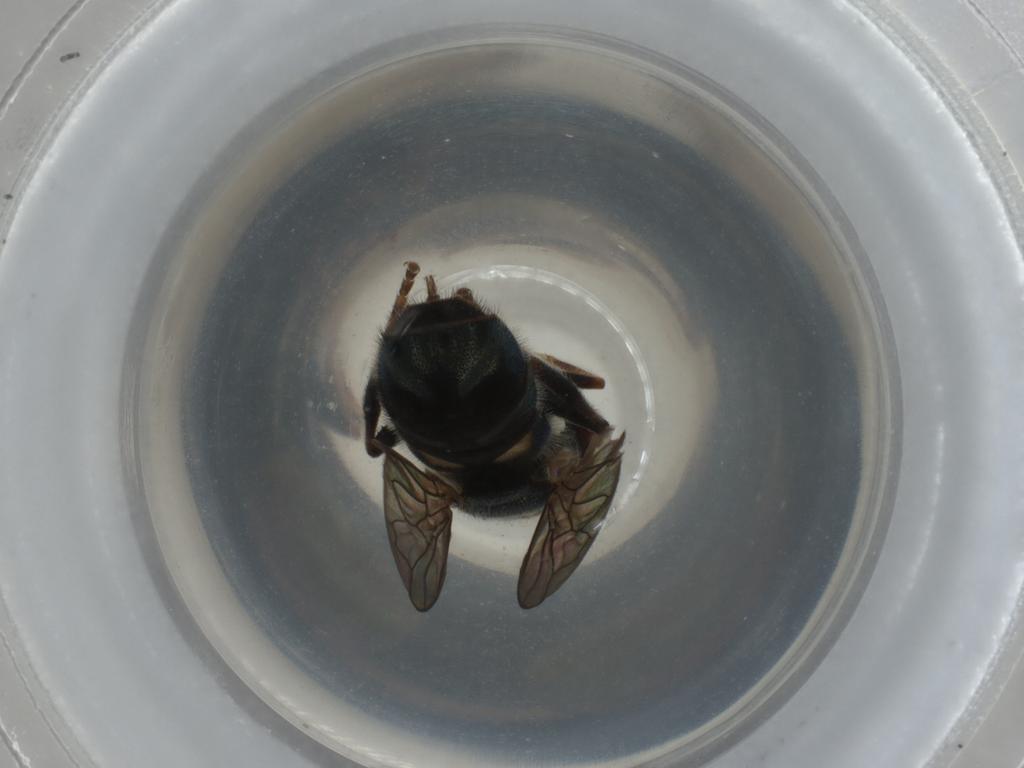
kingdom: Animalia
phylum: Arthropoda
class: Insecta
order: Diptera
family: Syrphidae
